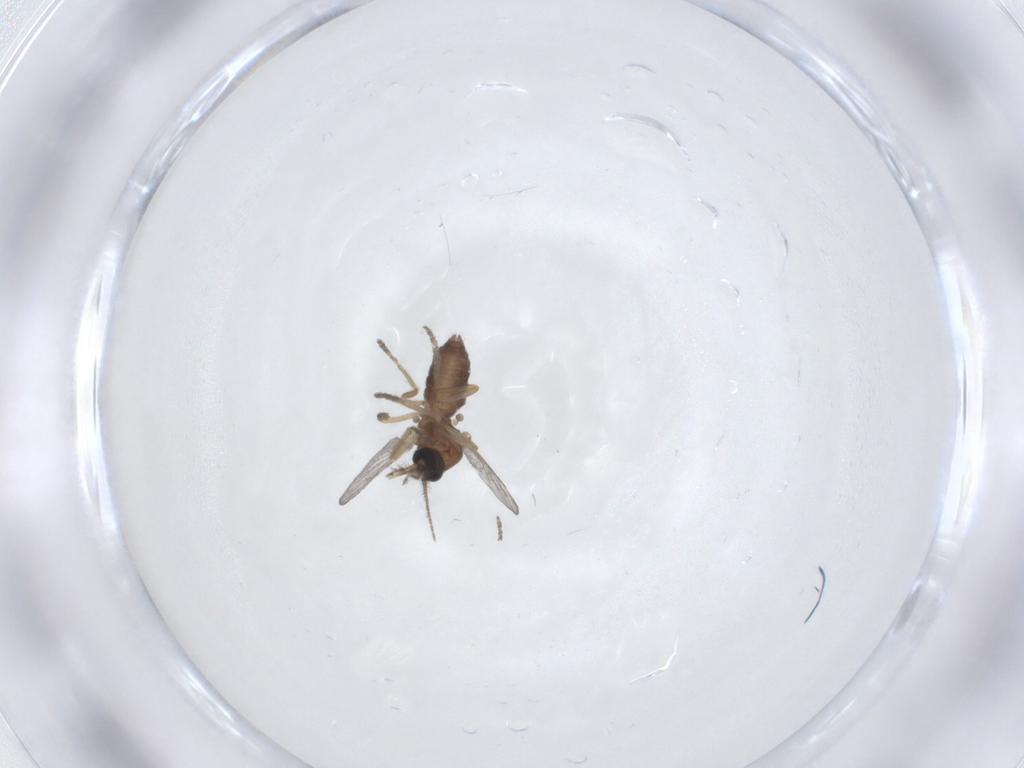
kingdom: Animalia
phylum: Arthropoda
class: Insecta
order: Diptera
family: Ceratopogonidae
